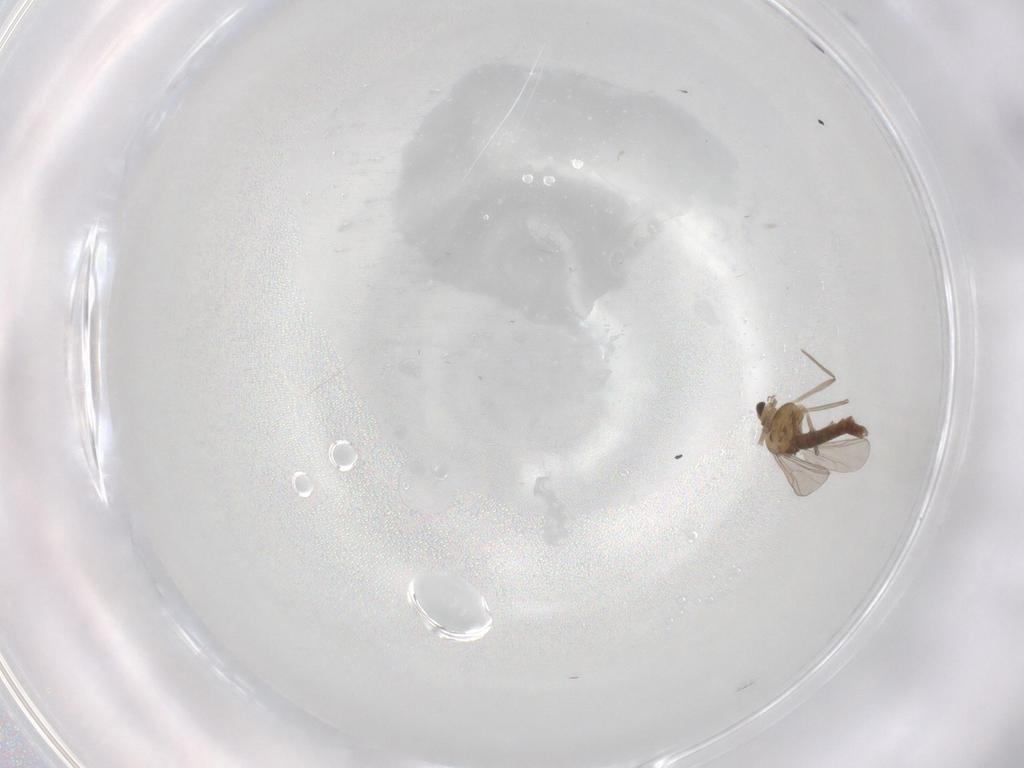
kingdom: Animalia
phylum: Arthropoda
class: Insecta
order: Diptera
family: Chironomidae
